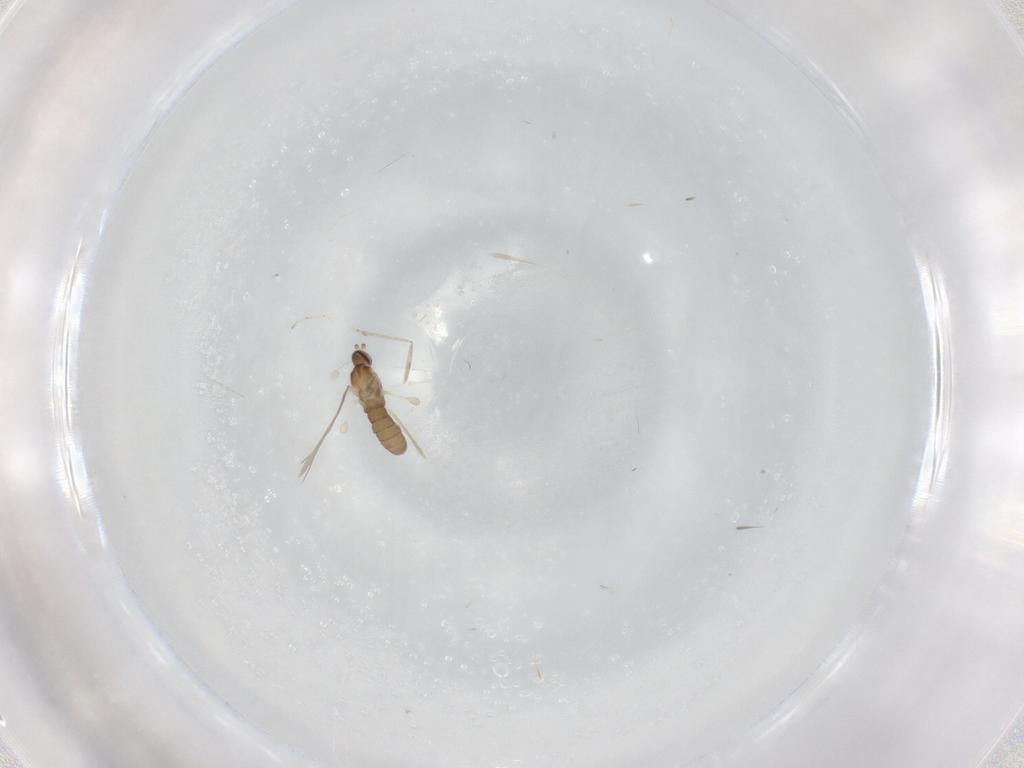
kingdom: Animalia
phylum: Arthropoda
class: Insecta
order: Diptera
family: Cecidomyiidae
